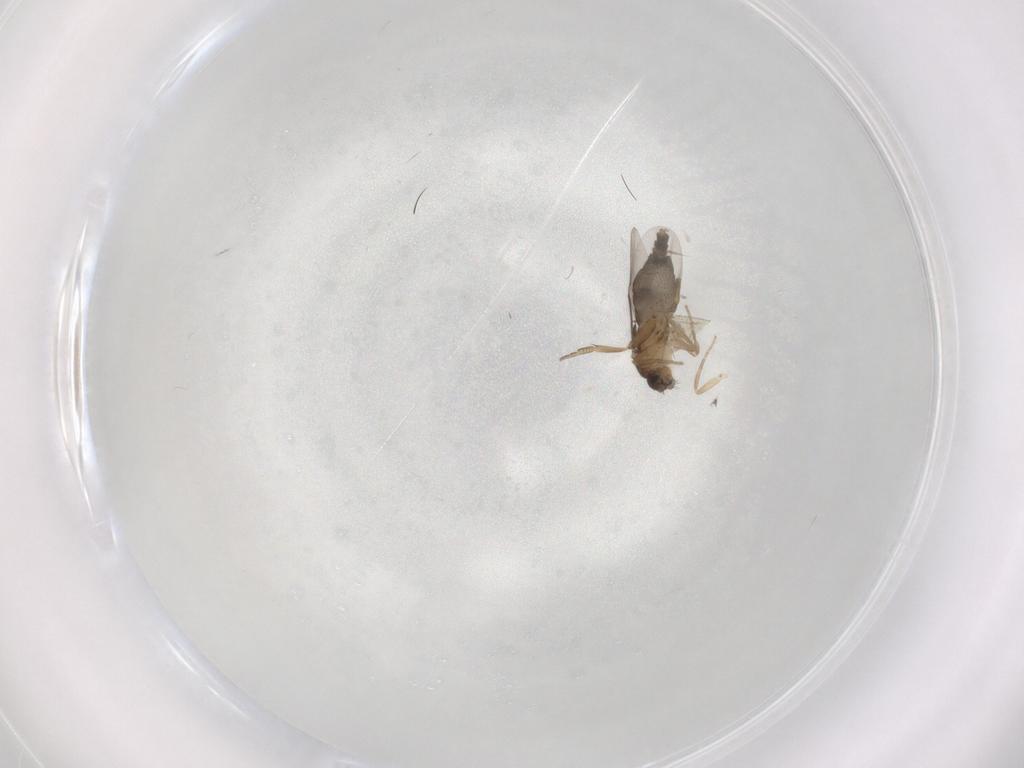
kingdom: Animalia
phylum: Arthropoda
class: Insecta
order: Diptera
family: Phoridae
